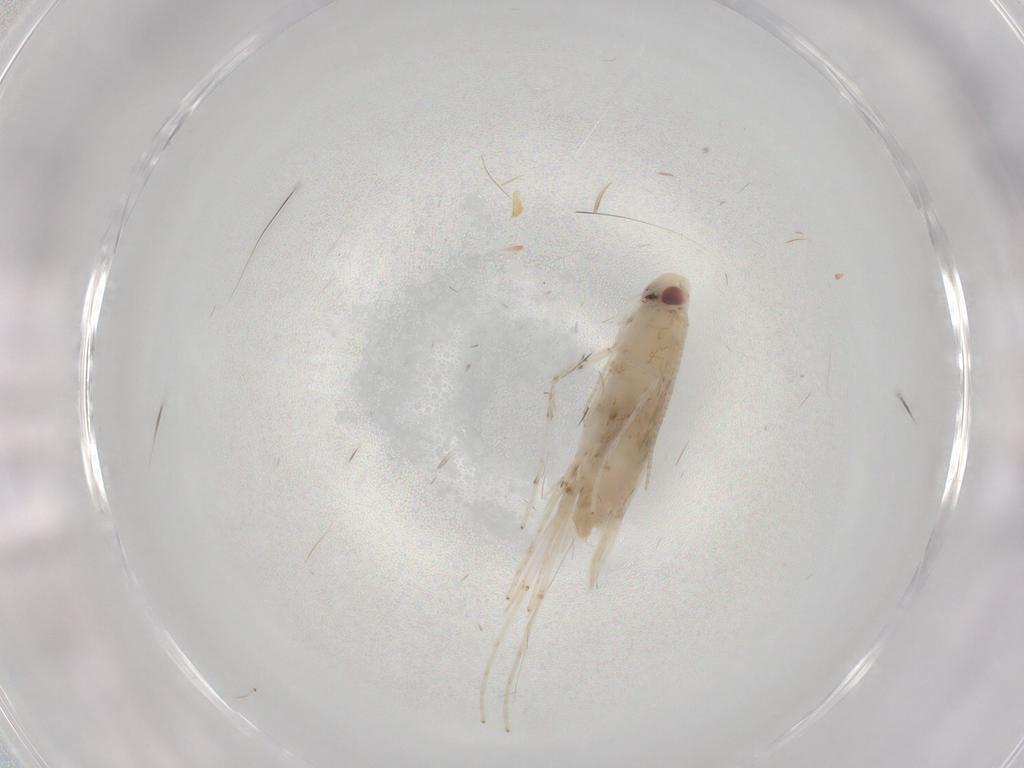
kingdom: Animalia
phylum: Arthropoda
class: Insecta
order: Lepidoptera
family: Gracillariidae
